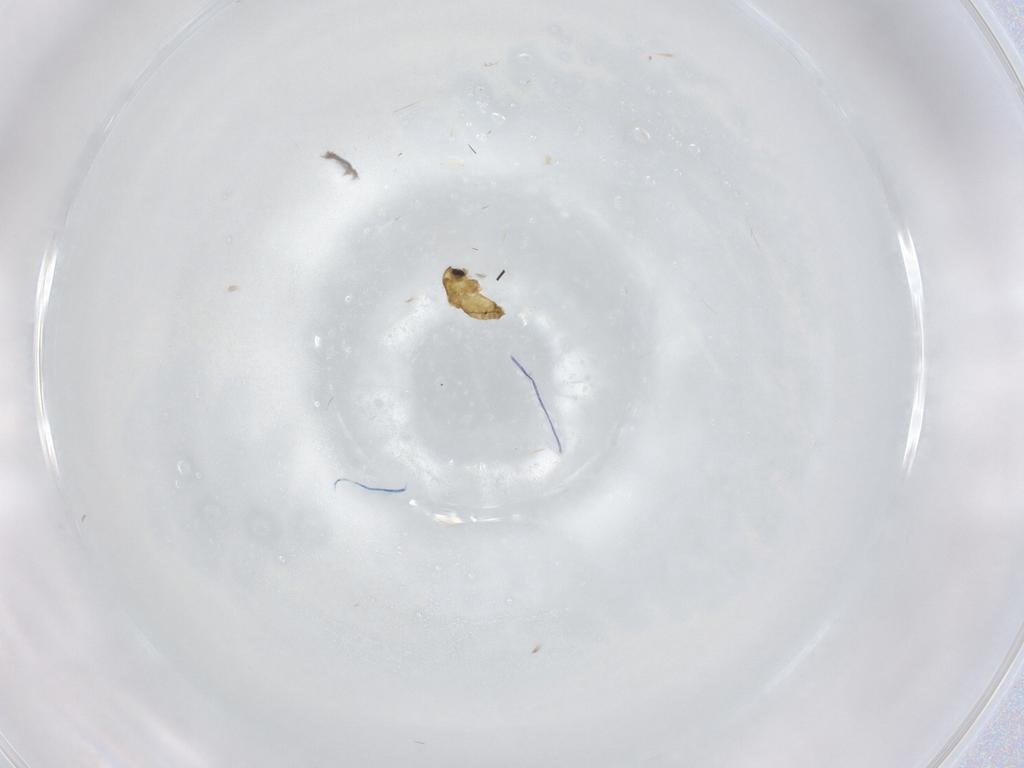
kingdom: Animalia
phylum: Arthropoda
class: Insecta
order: Diptera
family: Chironomidae
